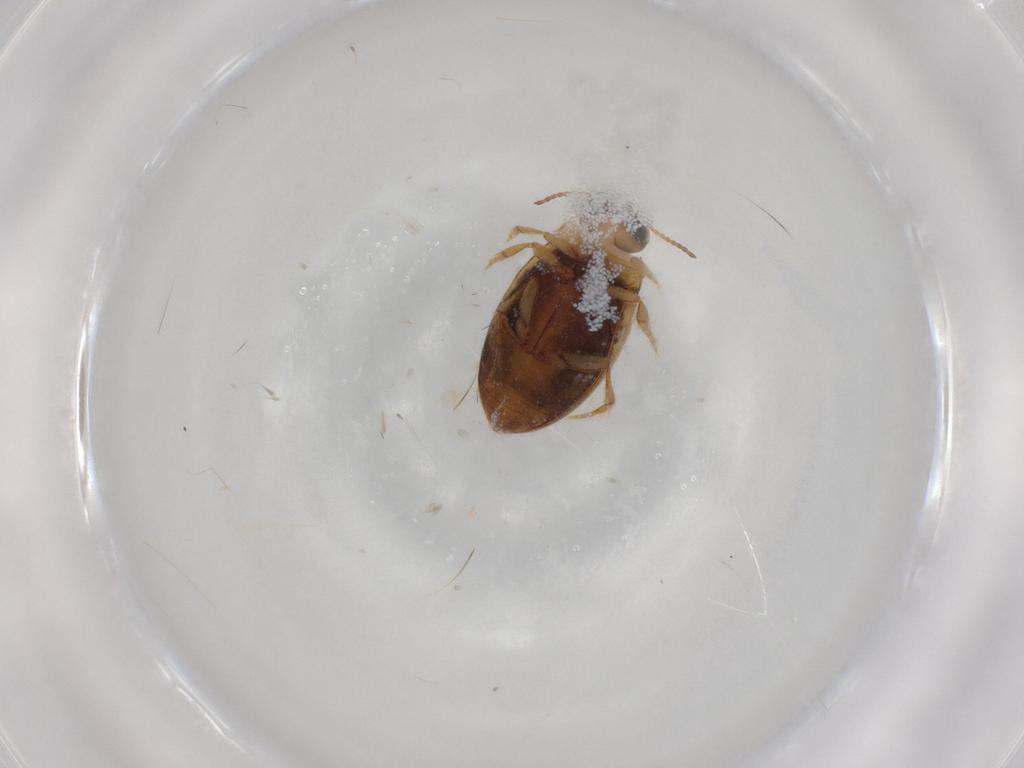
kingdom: Animalia
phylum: Arthropoda
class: Insecta
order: Coleoptera
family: Dytiscidae
